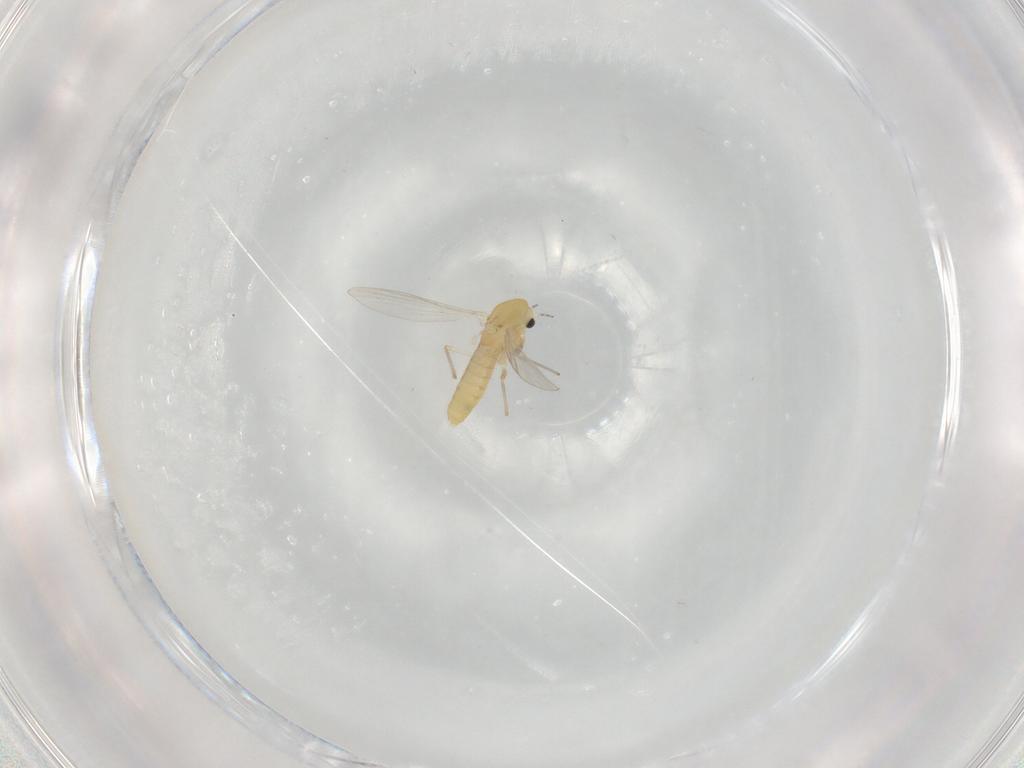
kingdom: Animalia
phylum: Arthropoda
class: Insecta
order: Diptera
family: Chironomidae
